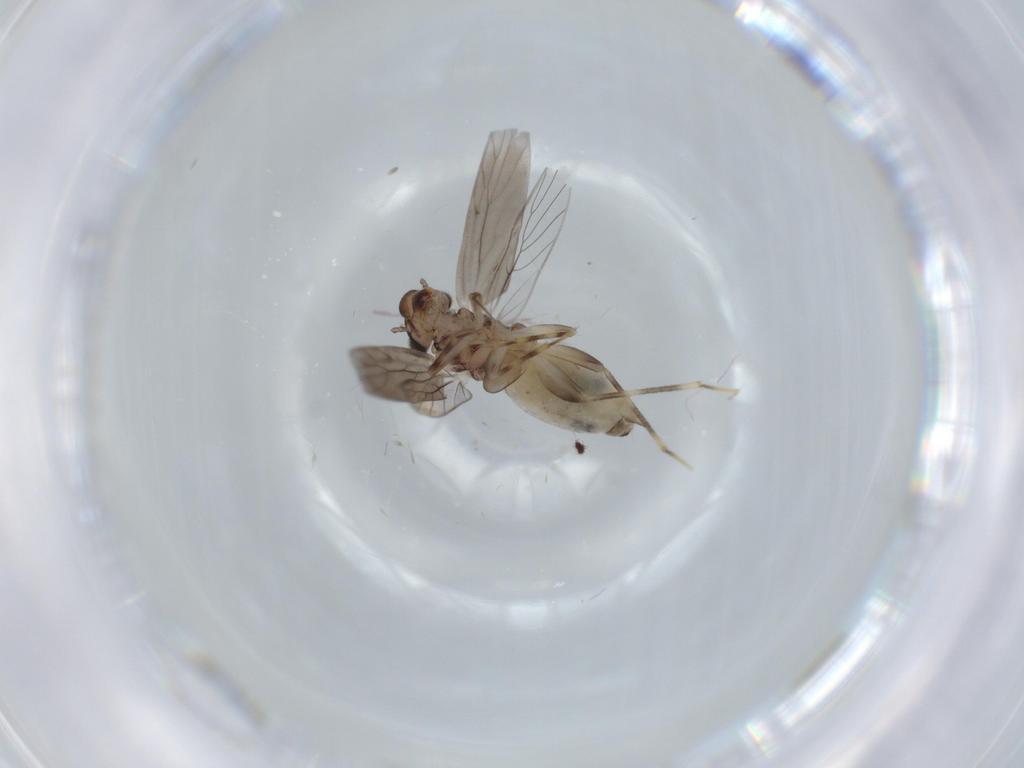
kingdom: Animalia
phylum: Arthropoda
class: Insecta
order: Psocodea
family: Lepidopsocidae
